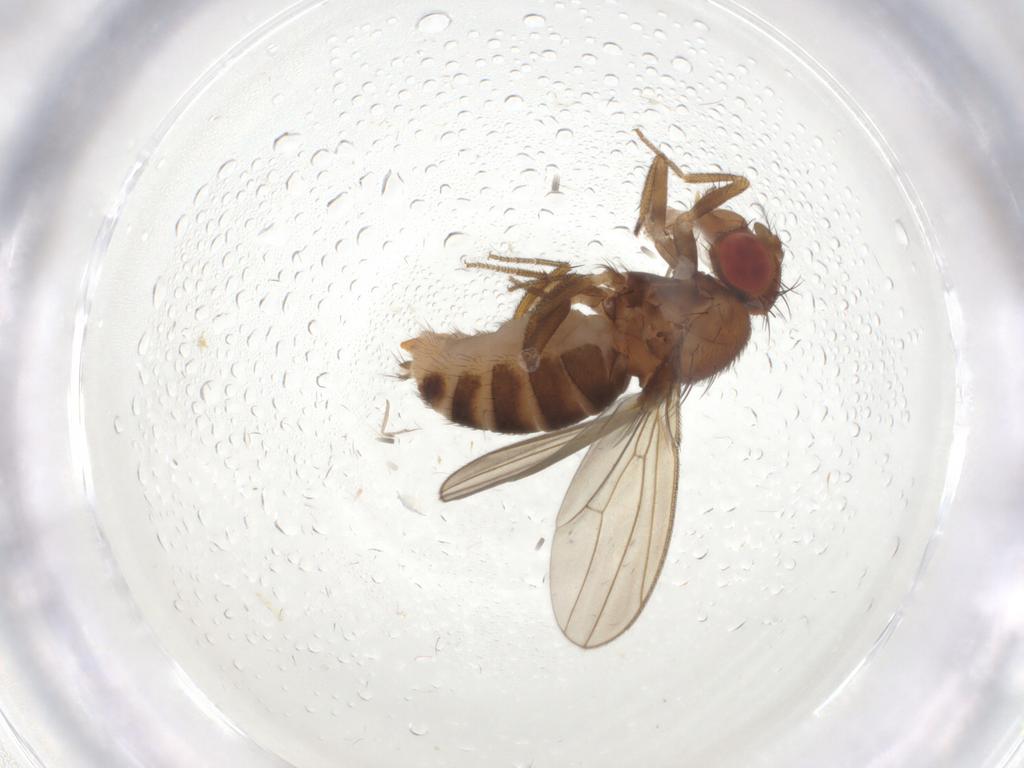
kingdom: Animalia
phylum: Arthropoda
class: Insecta
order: Diptera
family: Drosophilidae
